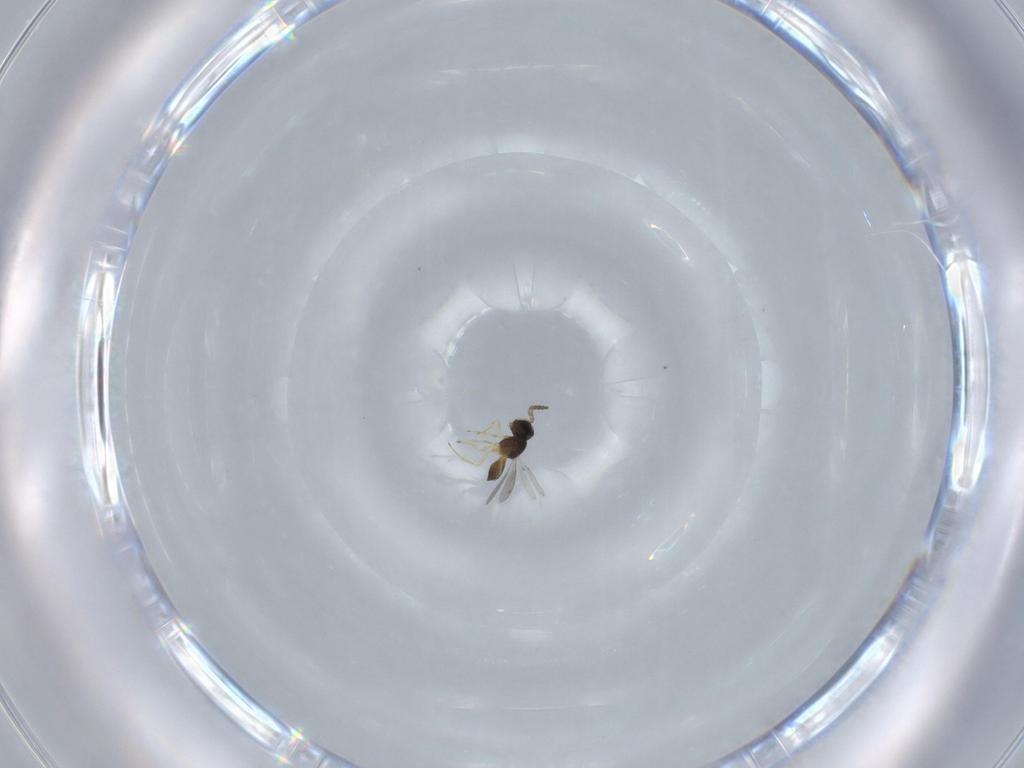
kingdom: Animalia
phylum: Arthropoda
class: Insecta
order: Hymenoptera
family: Scelionidae
